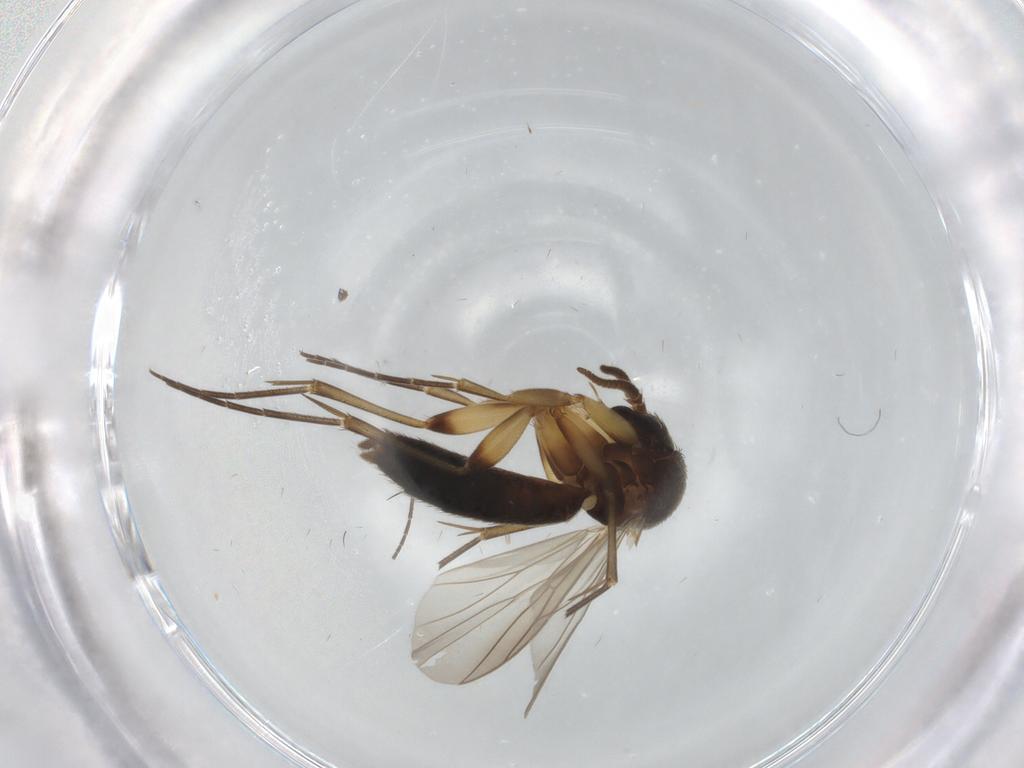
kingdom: Animalia
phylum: Arthropoda
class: Insecta
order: Diptera
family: Sciaridae
